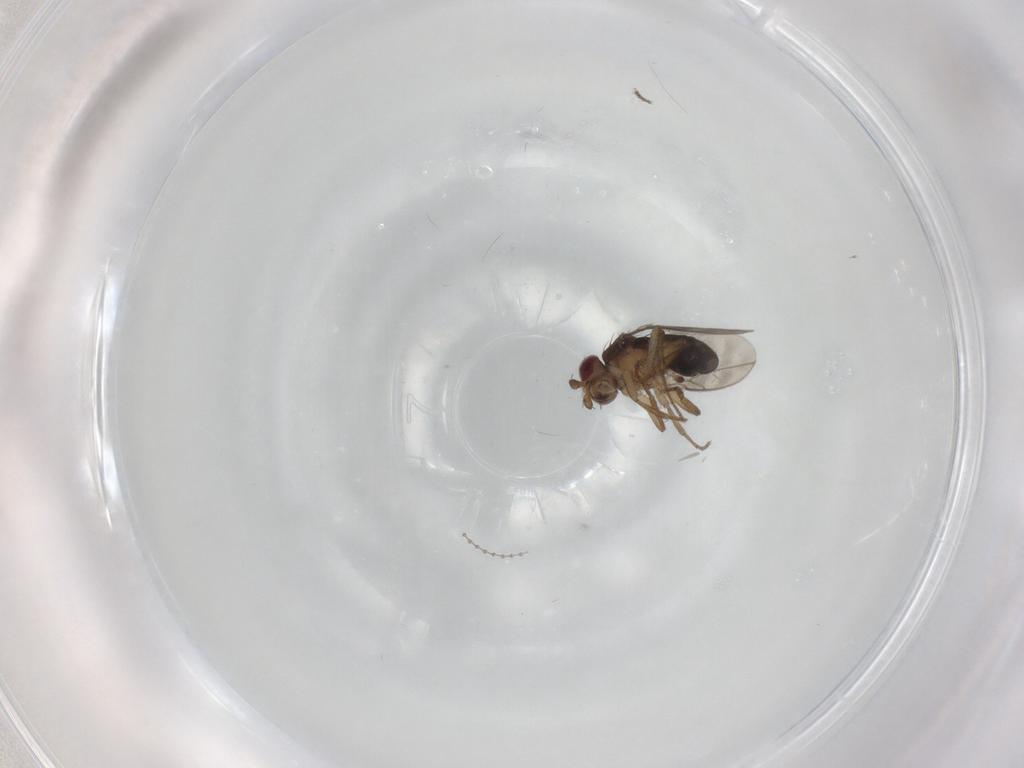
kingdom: Animalia
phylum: Arthropoda
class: Insecta
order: Diptera
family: Sphaeroceridae
